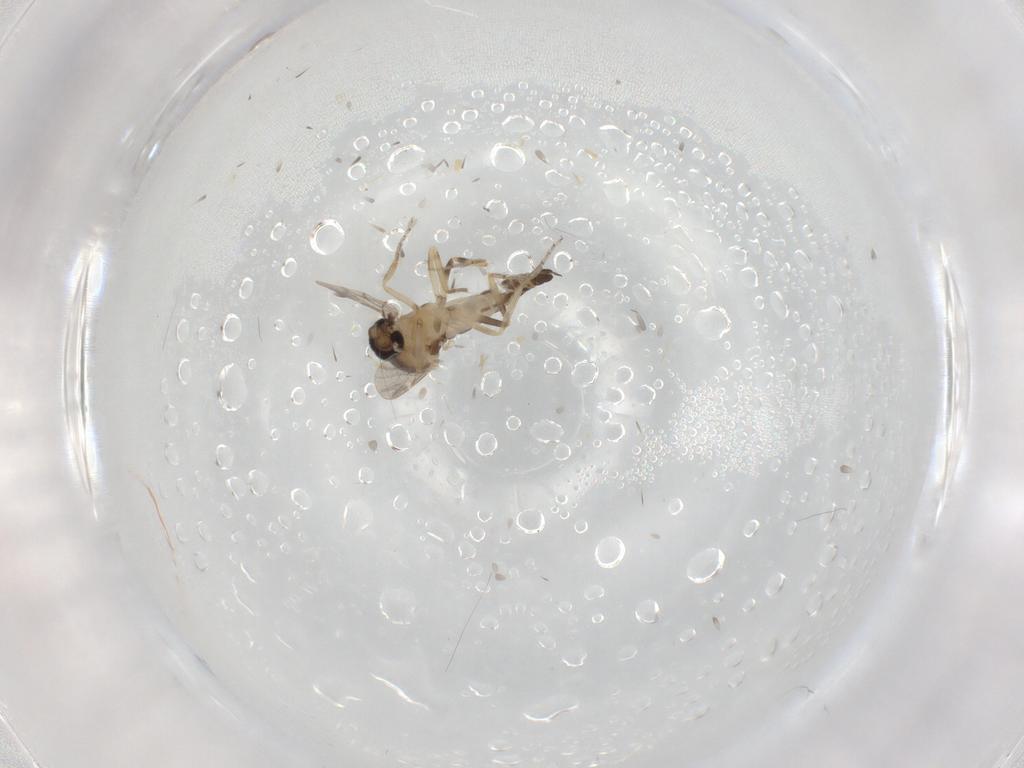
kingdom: Animalia
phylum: Arthropoda
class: Insecta
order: Diptera
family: Ceratopogonidae
